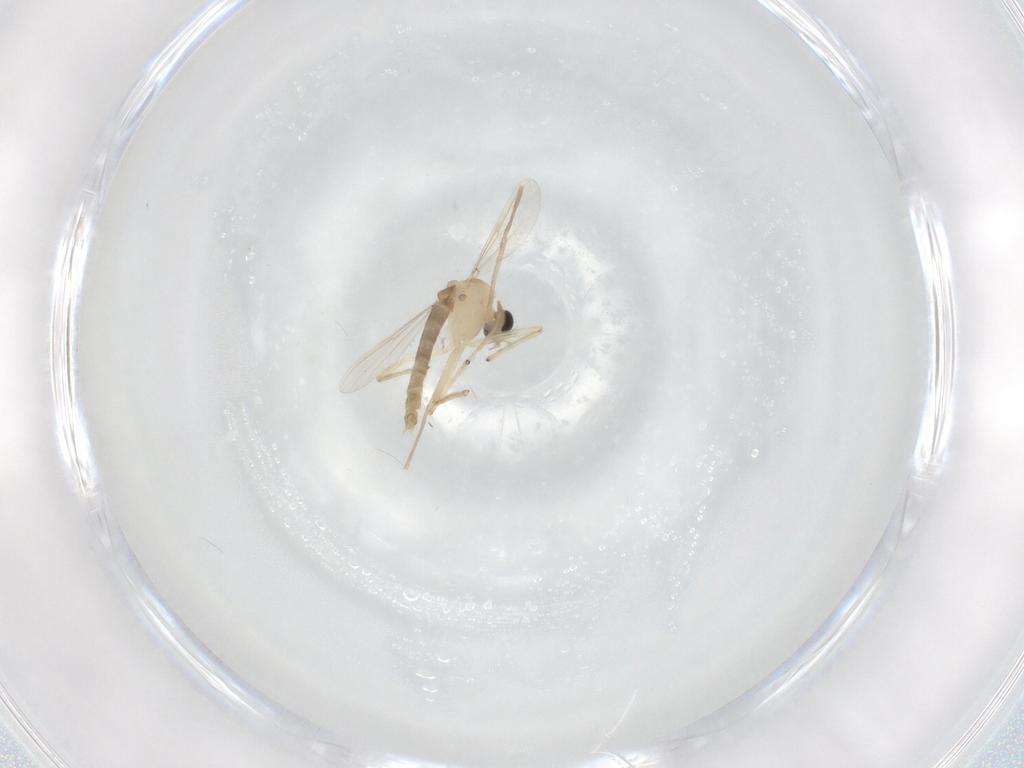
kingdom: Animalia
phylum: Arthropoda
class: Insecta
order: Diptera
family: Chironomidae
